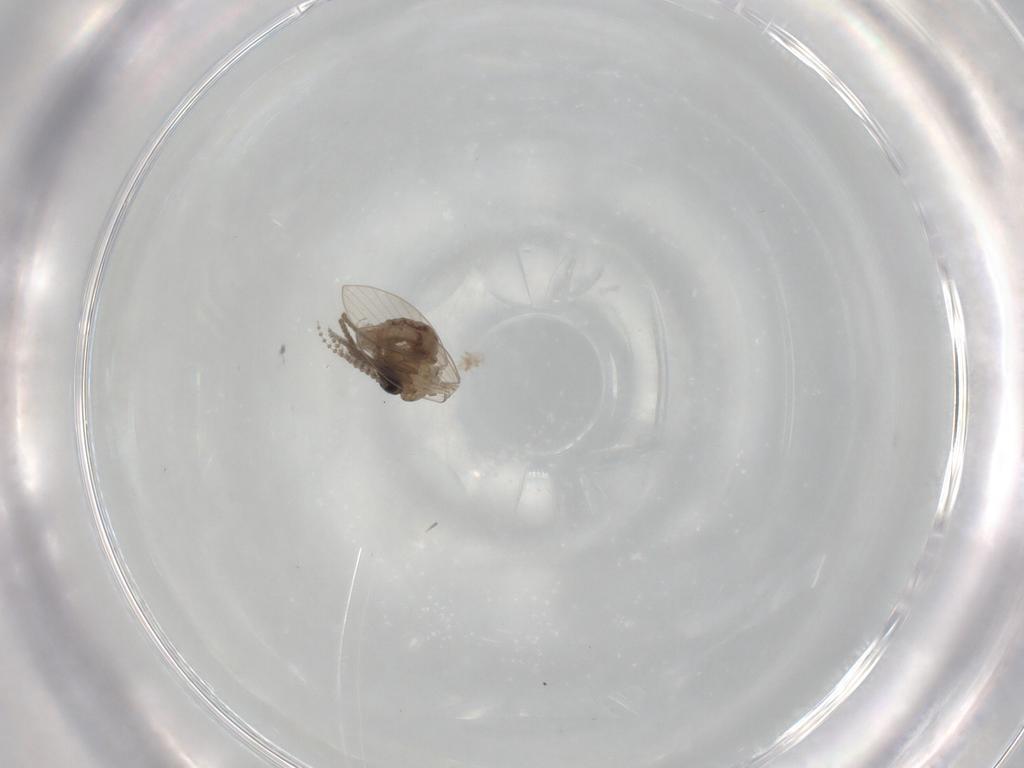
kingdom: Animalia
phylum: Arthropoda
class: Insecta
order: Diptera
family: Psychodidae
